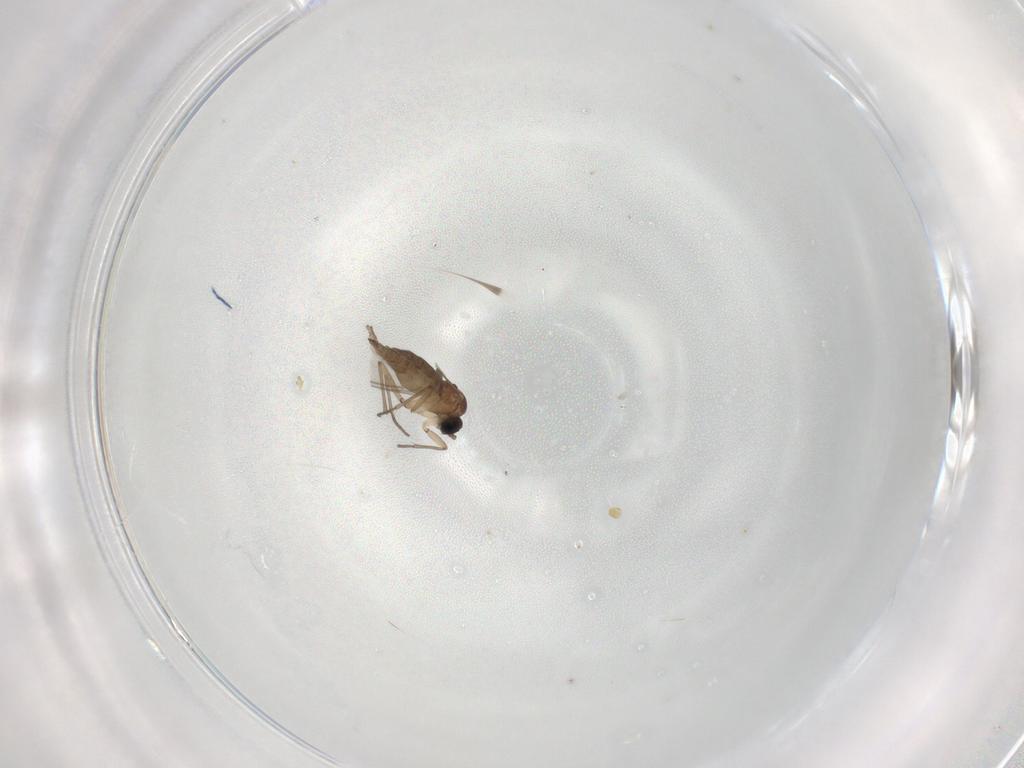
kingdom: Animalia
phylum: Arthropoda
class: Insecta
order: Diptera
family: Sciaridae
